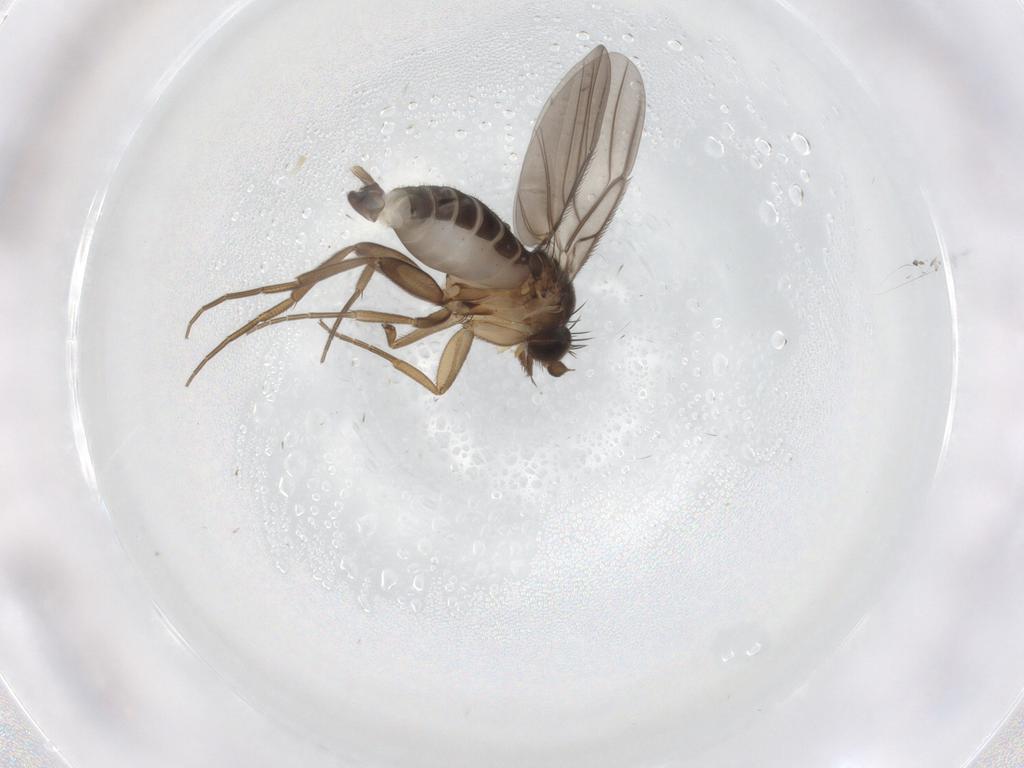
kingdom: Animalia
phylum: Arthropoda
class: Insecta
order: Diptera
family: Psychodidae
